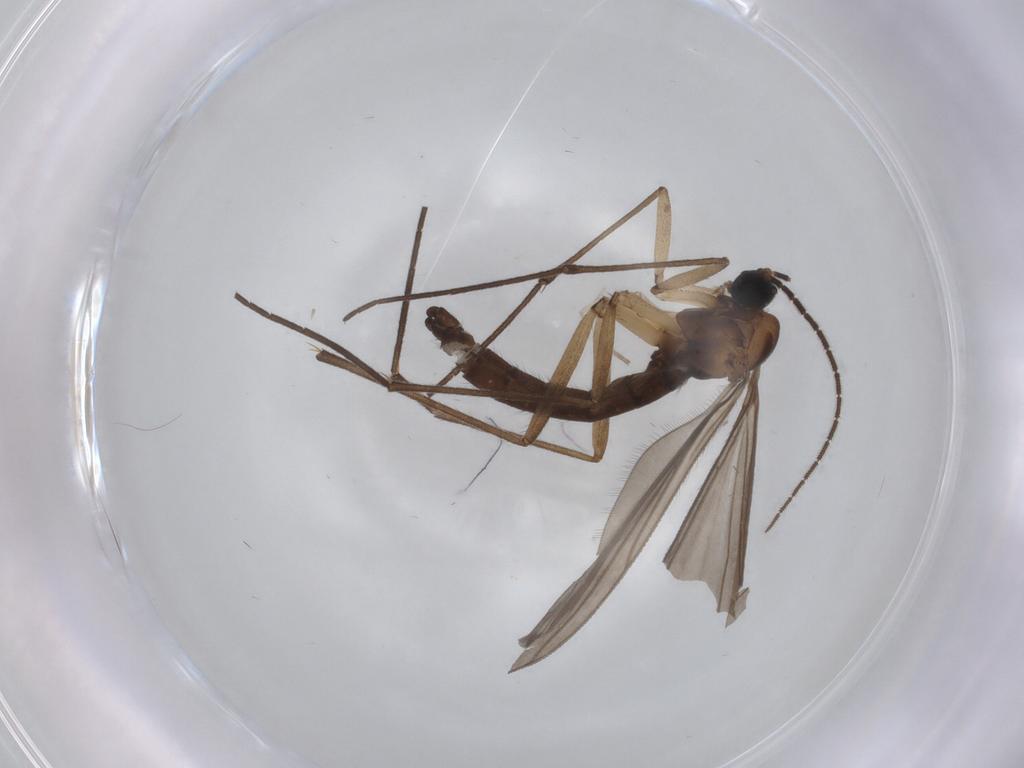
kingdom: Animalia
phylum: Arthropoda
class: Insecta
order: Diptera
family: Sciaridae
